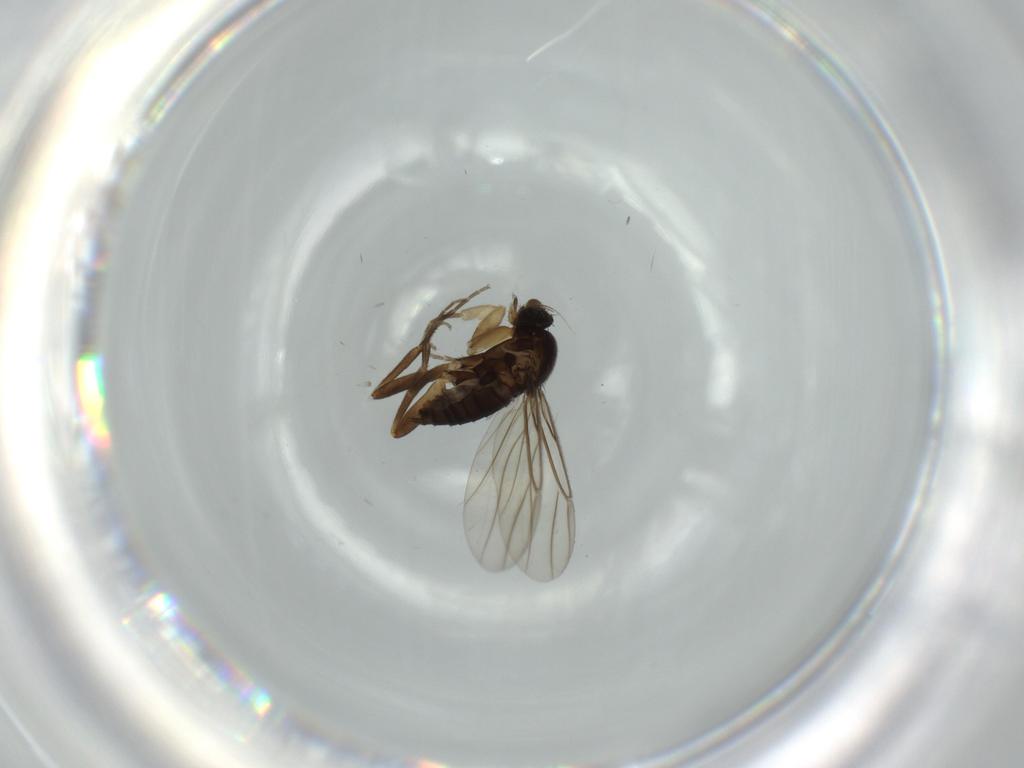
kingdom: Animalia
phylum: Arthropoda
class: Insecta
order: Diptera
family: Phoridae
